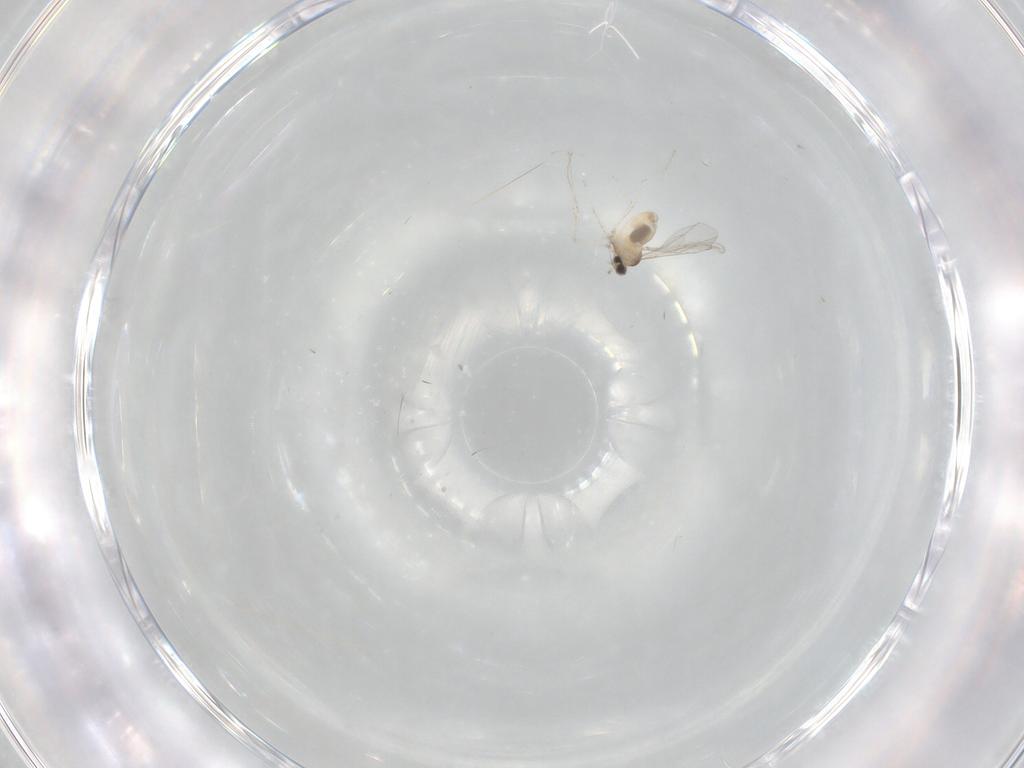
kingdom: Animalia
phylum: Arthropoda
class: Insecta
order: Diptera
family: Cecidomyiidae
